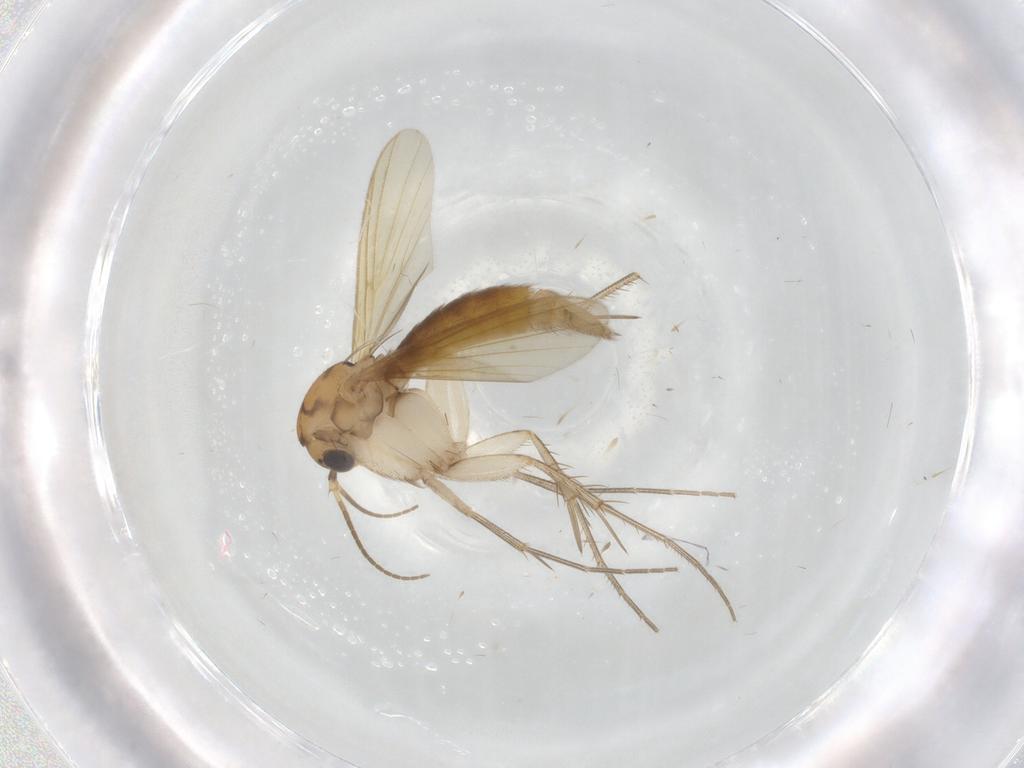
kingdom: Animalia
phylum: Arthropoda
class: Insecta
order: Diptera
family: Mycetophilidae
